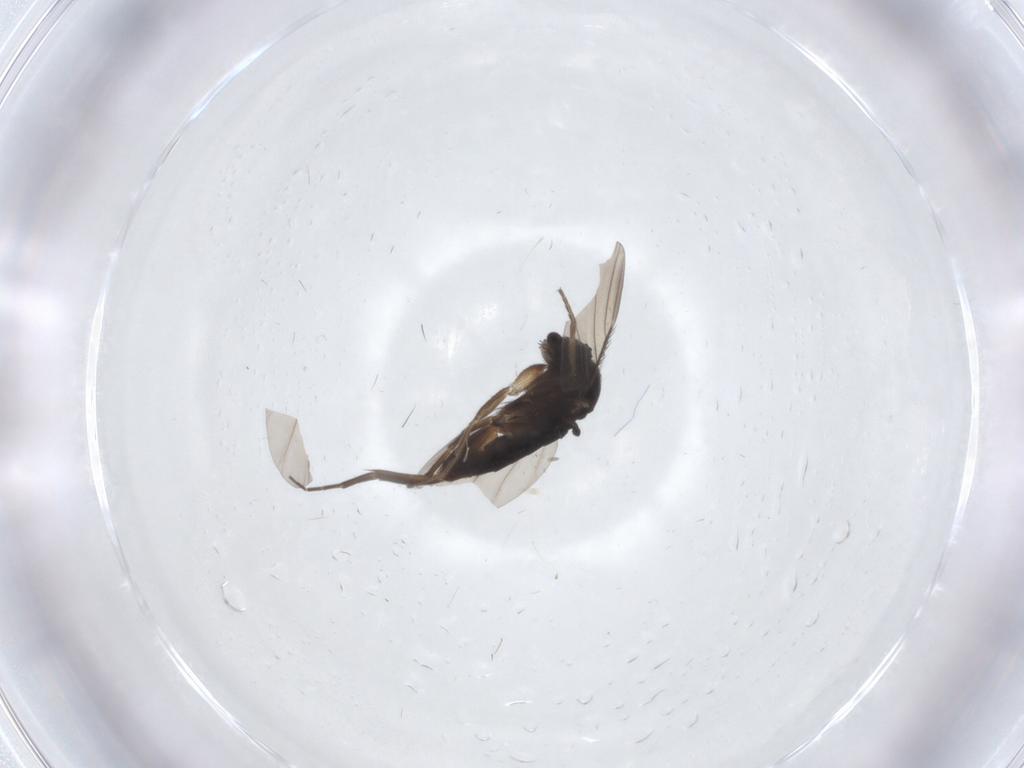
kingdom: Animalia
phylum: Arthropoda
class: Insecta
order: Diptera
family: Phoridae
